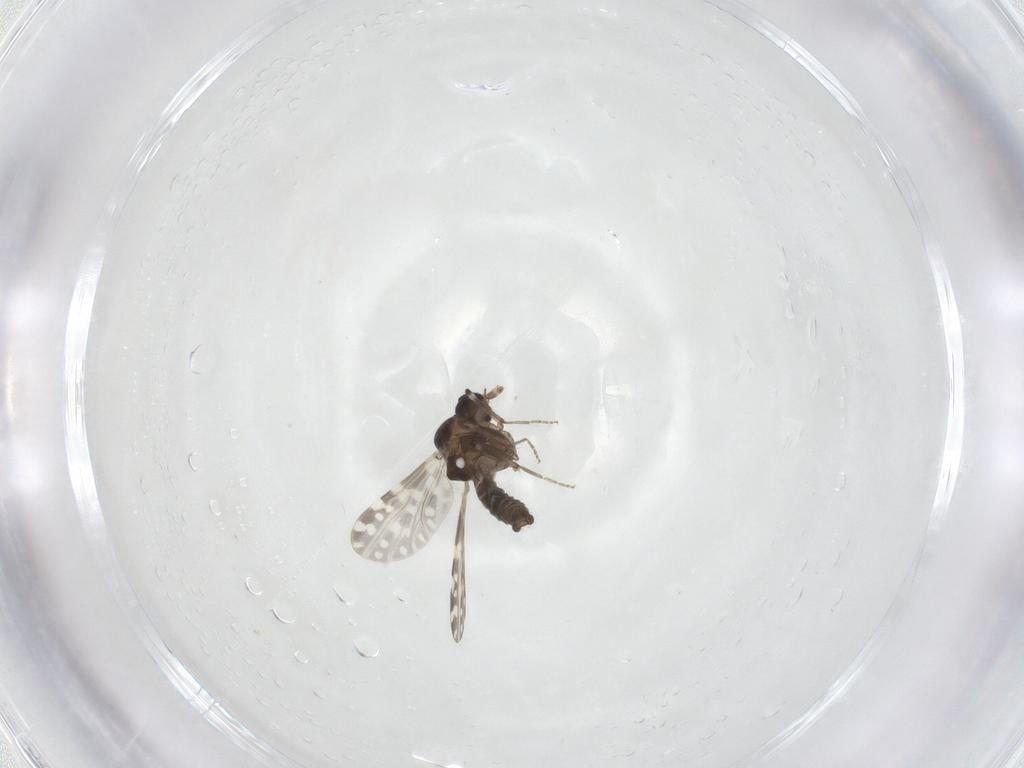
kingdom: Animalia
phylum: Arthropoda
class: Insecta
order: Diptera
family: Ceratopogonidae
